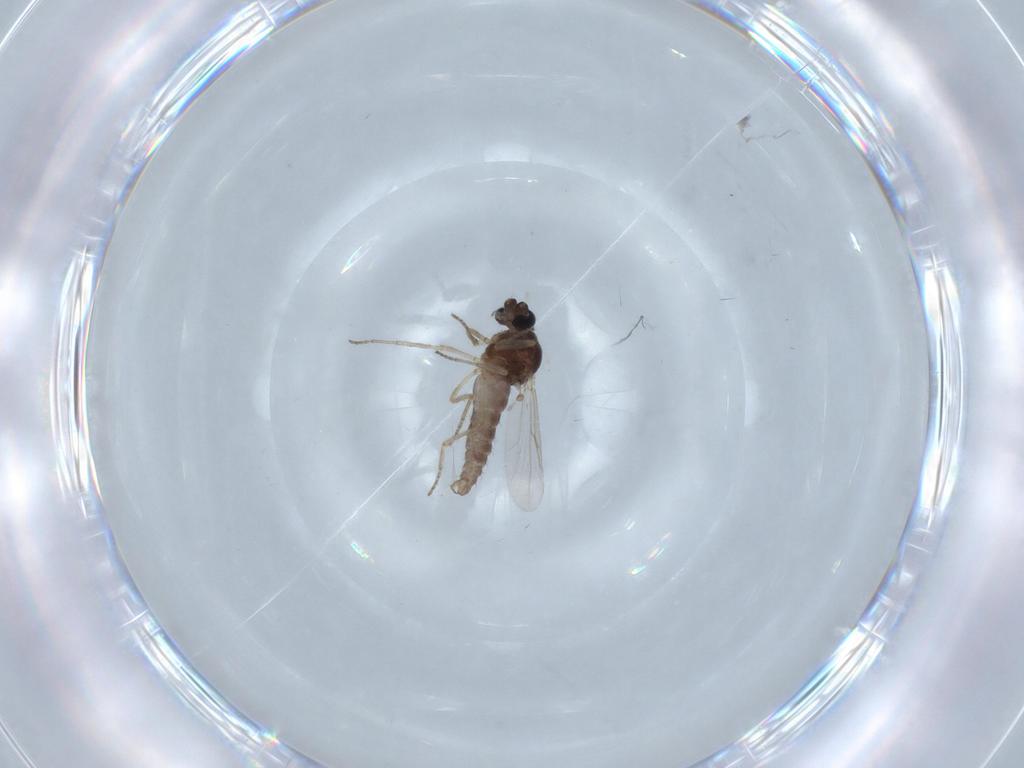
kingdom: Animalia
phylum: Arthropoda
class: Insecta
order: Diptera
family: Ceratopogonidae
